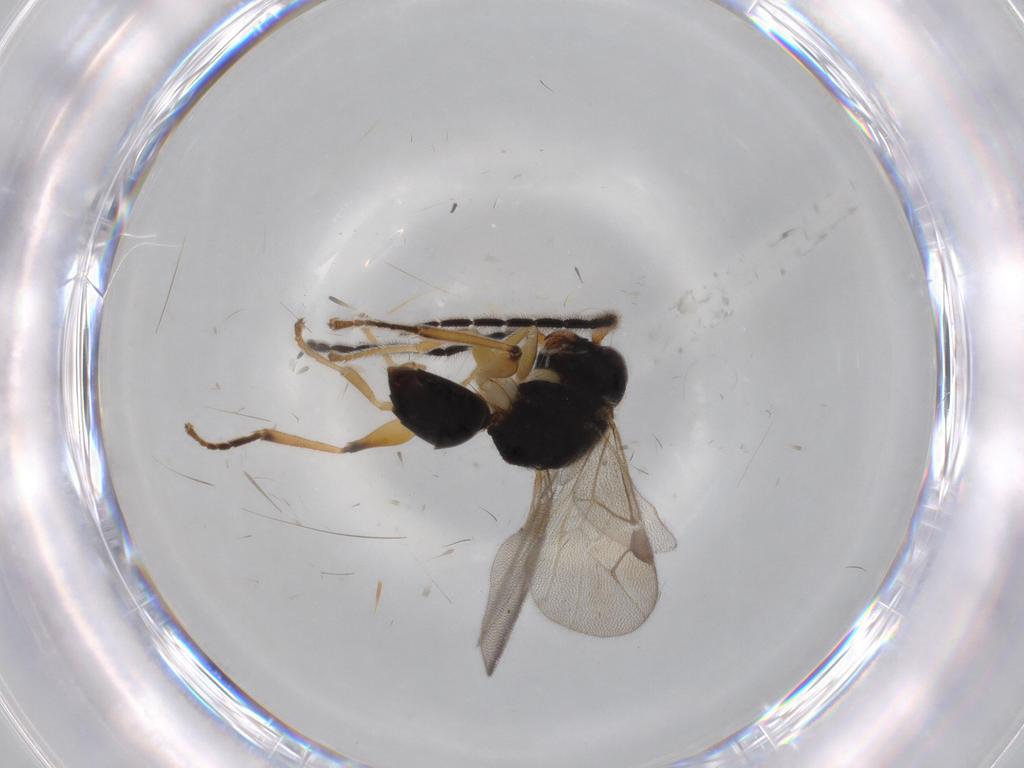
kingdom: Animalia
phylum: Arthropoda
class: Insecta
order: Hymenoptera
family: Dryinidae
